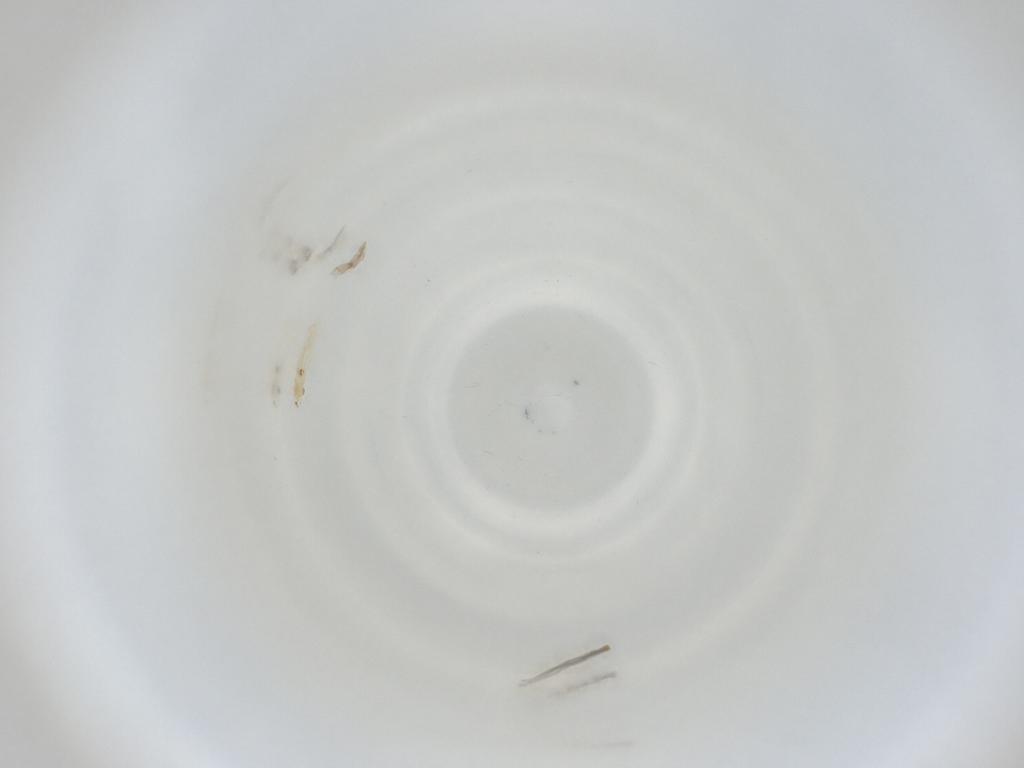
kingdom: Animalia
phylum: Arthropoda
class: Insecta
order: Diptera
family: Cecidomyiidae
